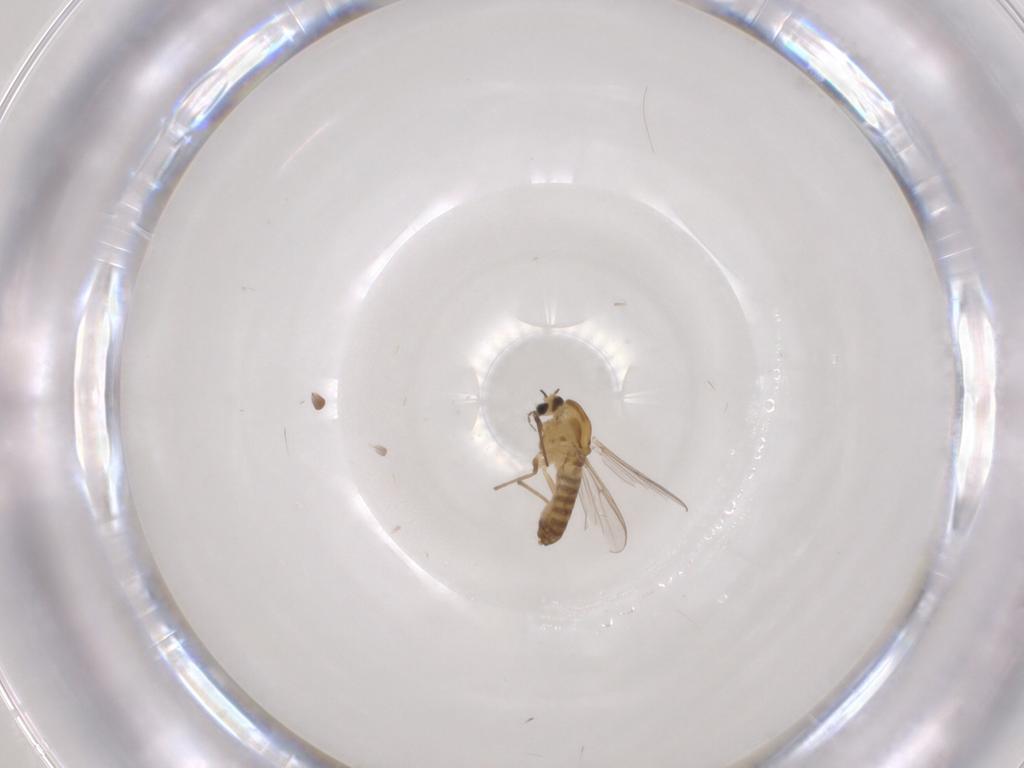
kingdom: Animalia
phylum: Arthropoda
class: Insecta
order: Diptera
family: Chironomidae
